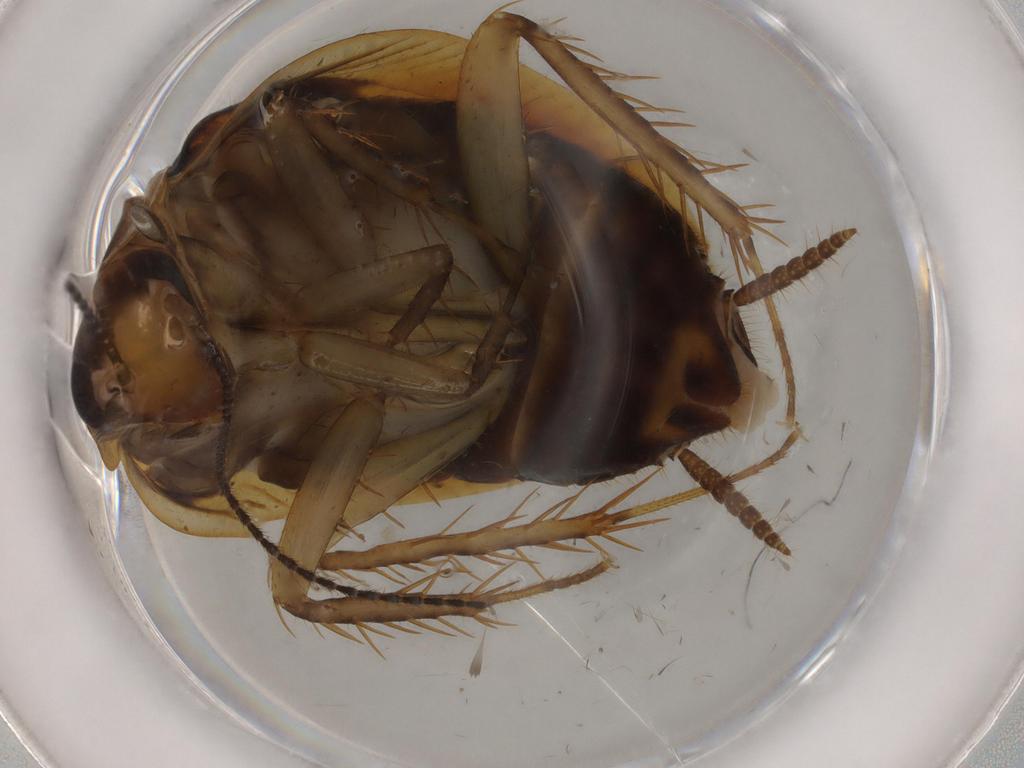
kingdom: Animalia
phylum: Arthropoda
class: Insecta
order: Blattodea
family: Ectobiidae
